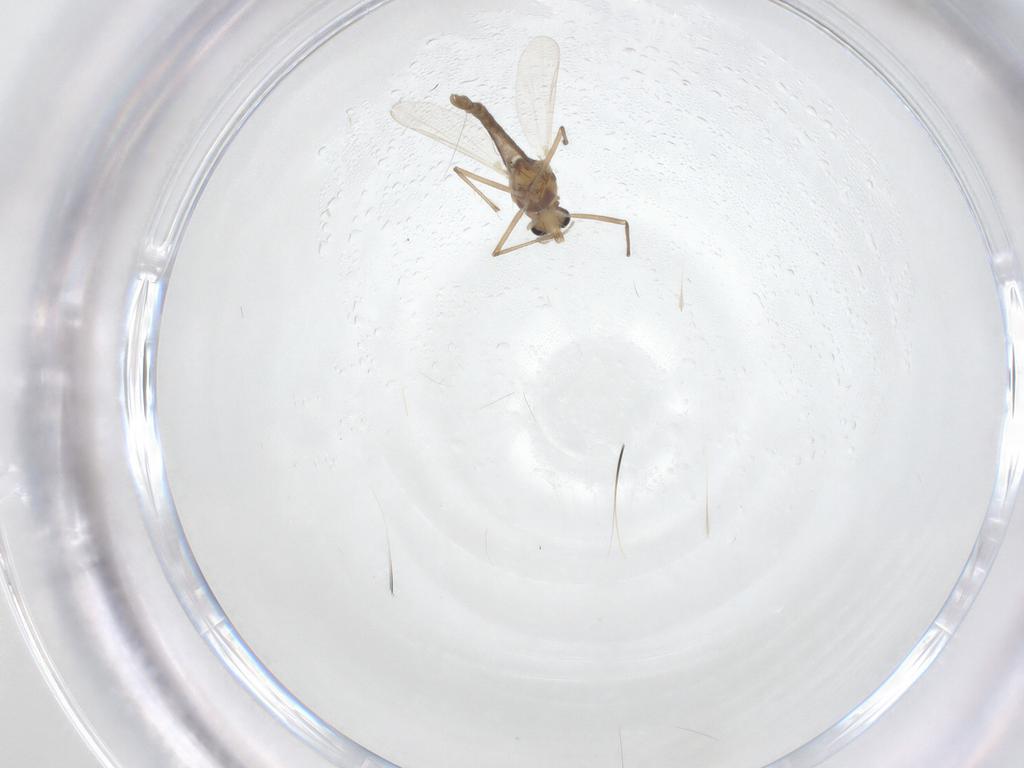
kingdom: Animalia
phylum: Arthropoda
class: Insecta
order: Diptera
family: Chironomidae
